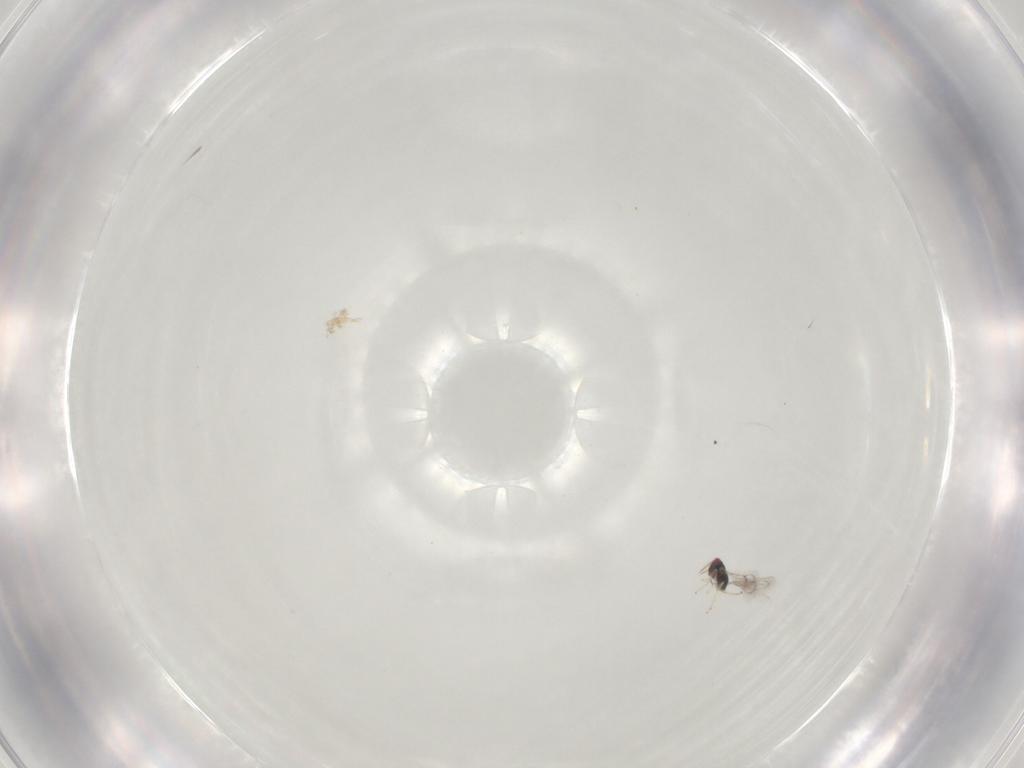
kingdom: Animalia
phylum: Arthropoda
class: Insecta
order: Hymenoptera
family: Eulophidae
